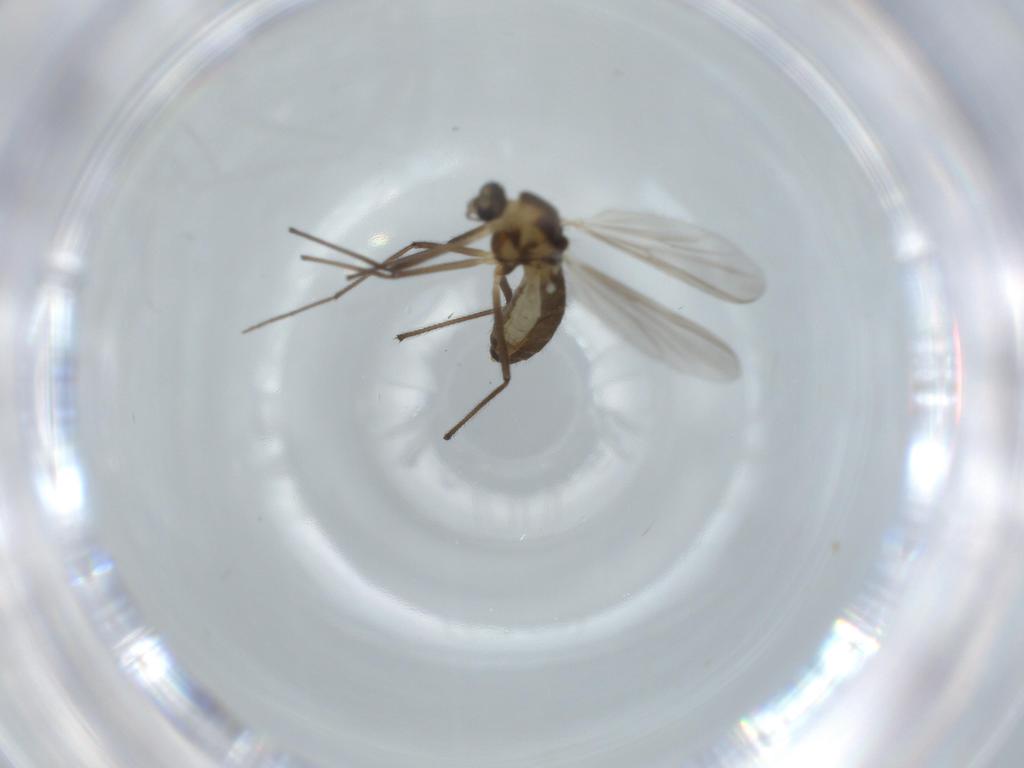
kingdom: Animalia
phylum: Arthropoda
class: Insecta
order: Diptera
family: Chironomidae
